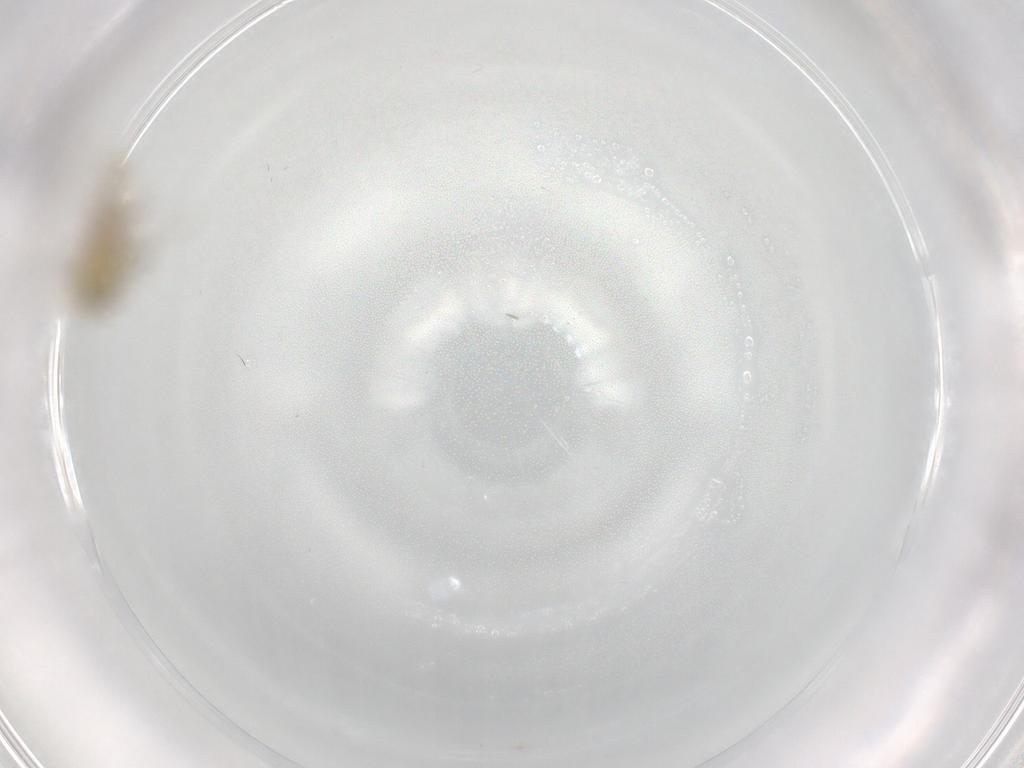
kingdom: Animalia
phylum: Arthropoda
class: Insecta
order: Diptera
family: Chironomidae
